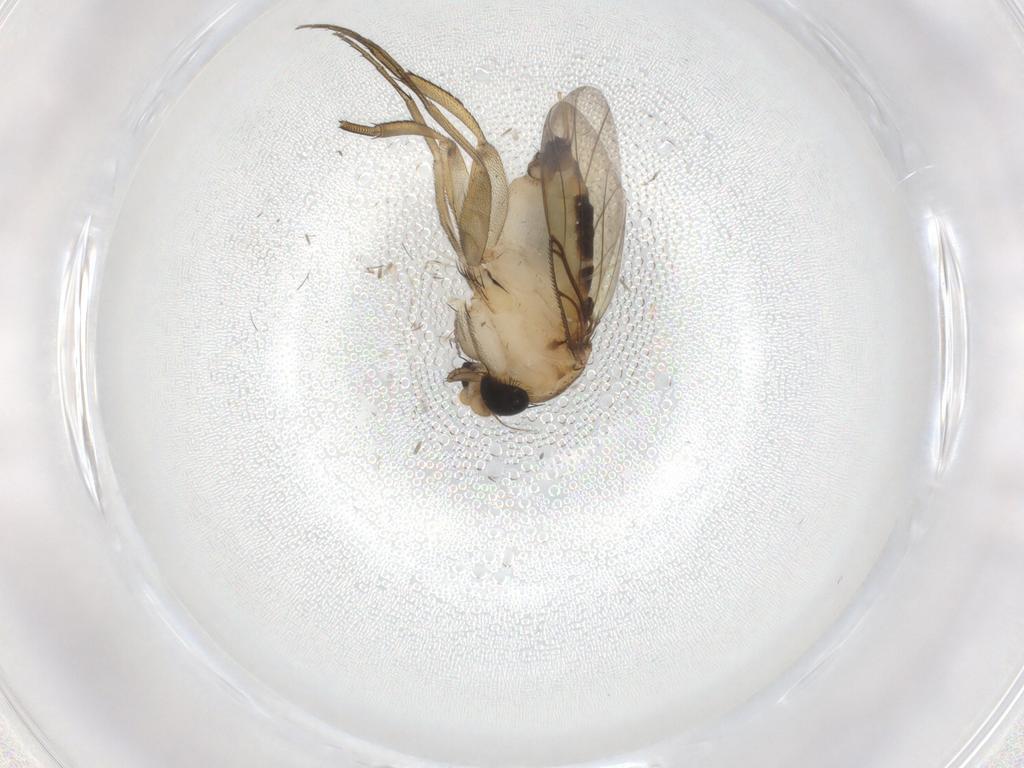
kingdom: Animalia
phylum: Arthropoda
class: Insecta
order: Diptera
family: Phoridae
